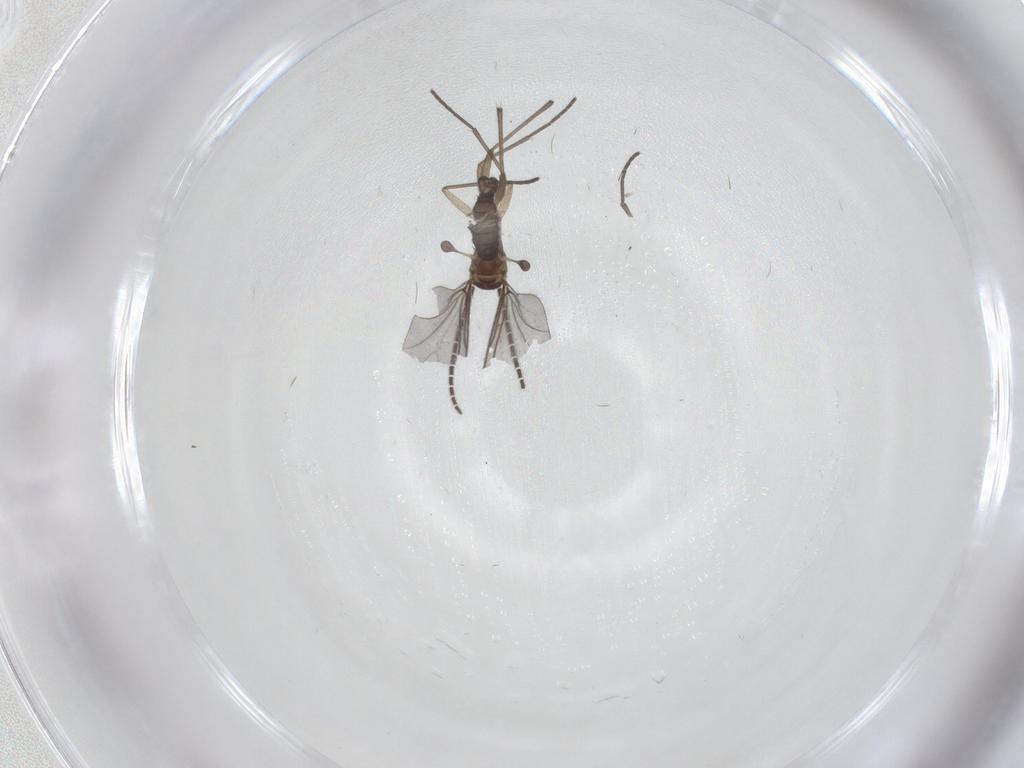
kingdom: Animalia
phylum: Arthropoda
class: Insecta
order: Diptera
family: Sciaridae
